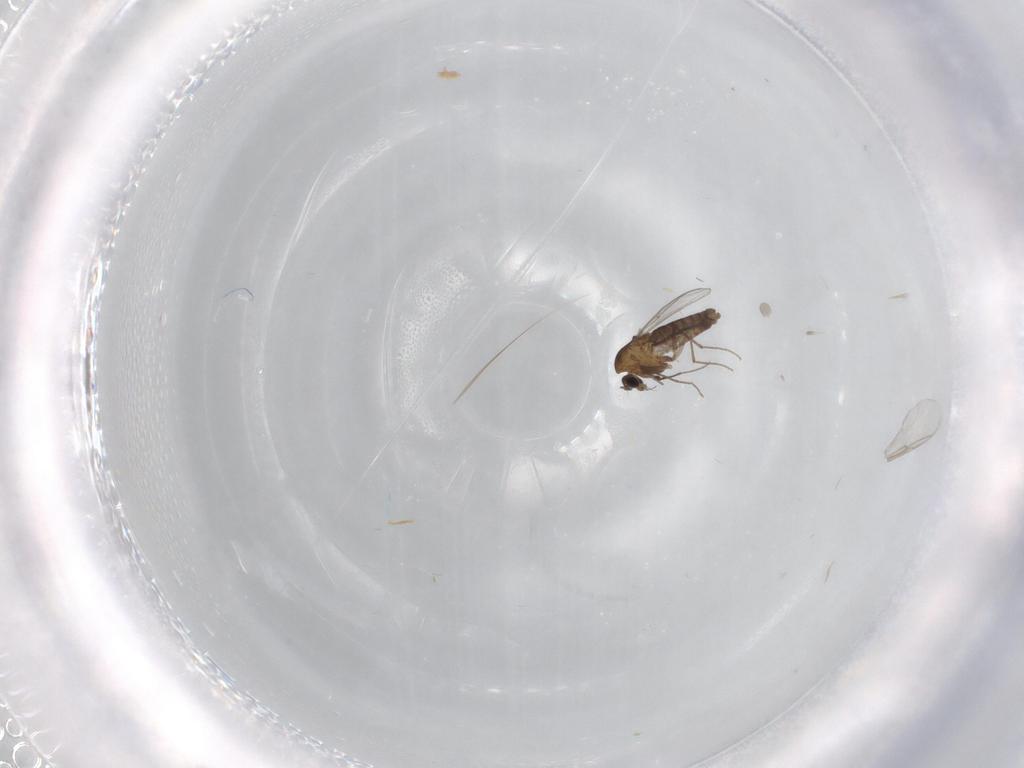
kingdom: Animalia
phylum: Arthropoda
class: Insecta
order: Diptera
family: Chironomidae
